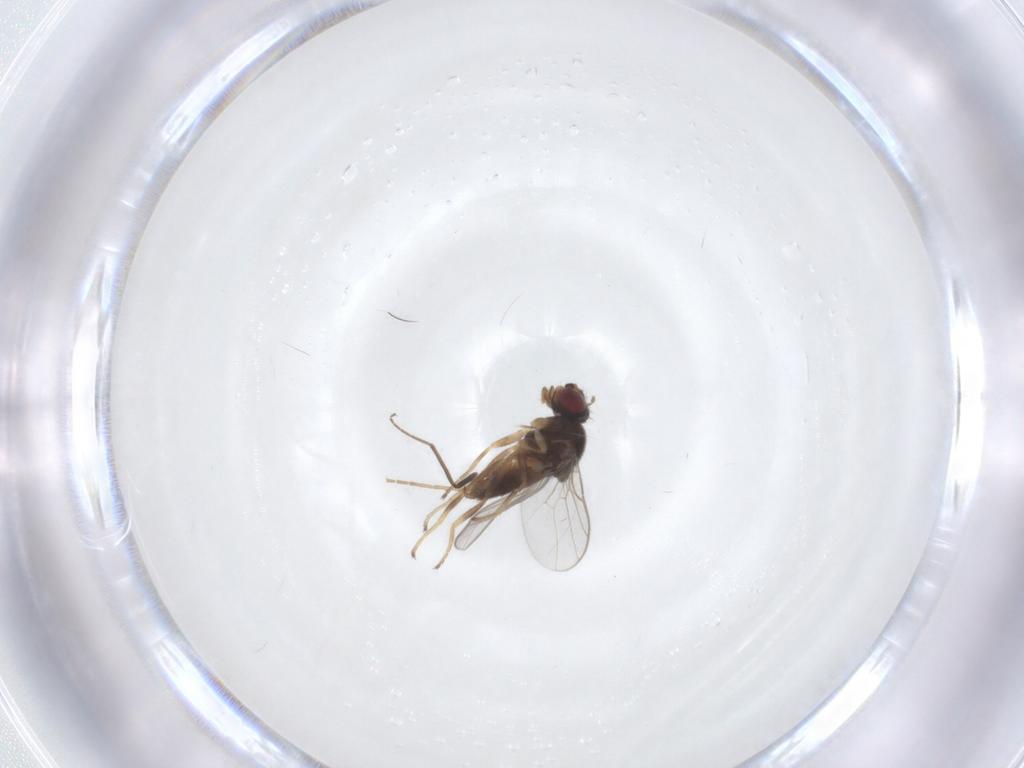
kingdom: Animalia
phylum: Arthropoda
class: Insecta
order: Diptera
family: Chloropidae
